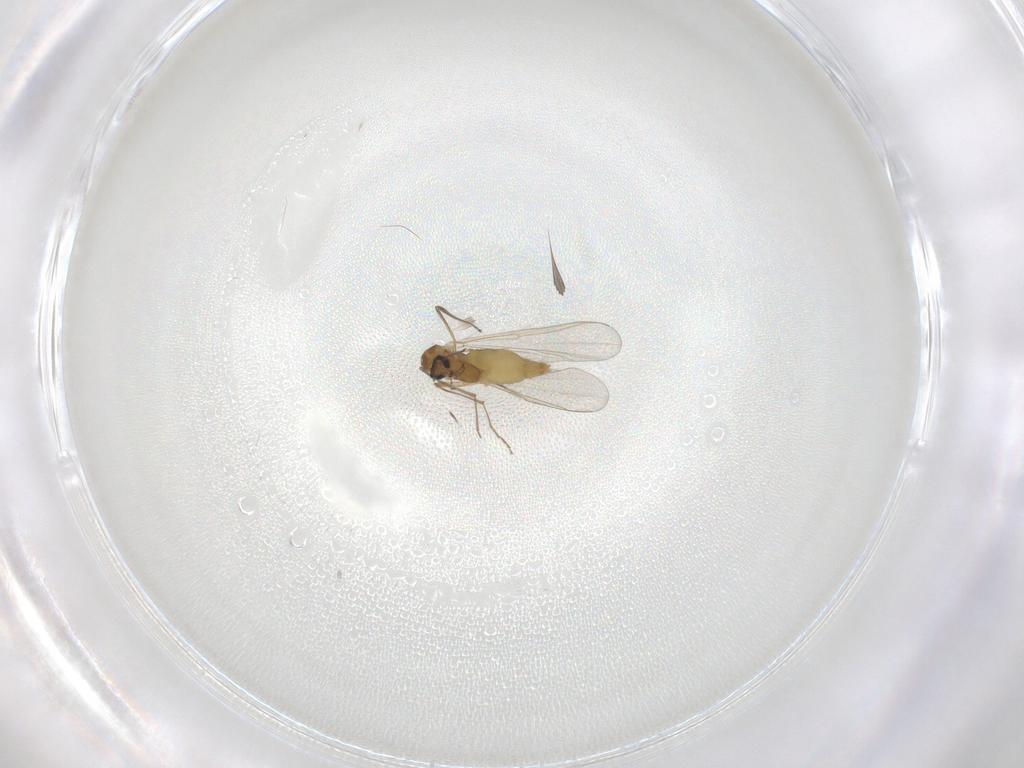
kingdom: Animalia
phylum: Arthropoda
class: Insecta
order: Diptera
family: Chironomidae
